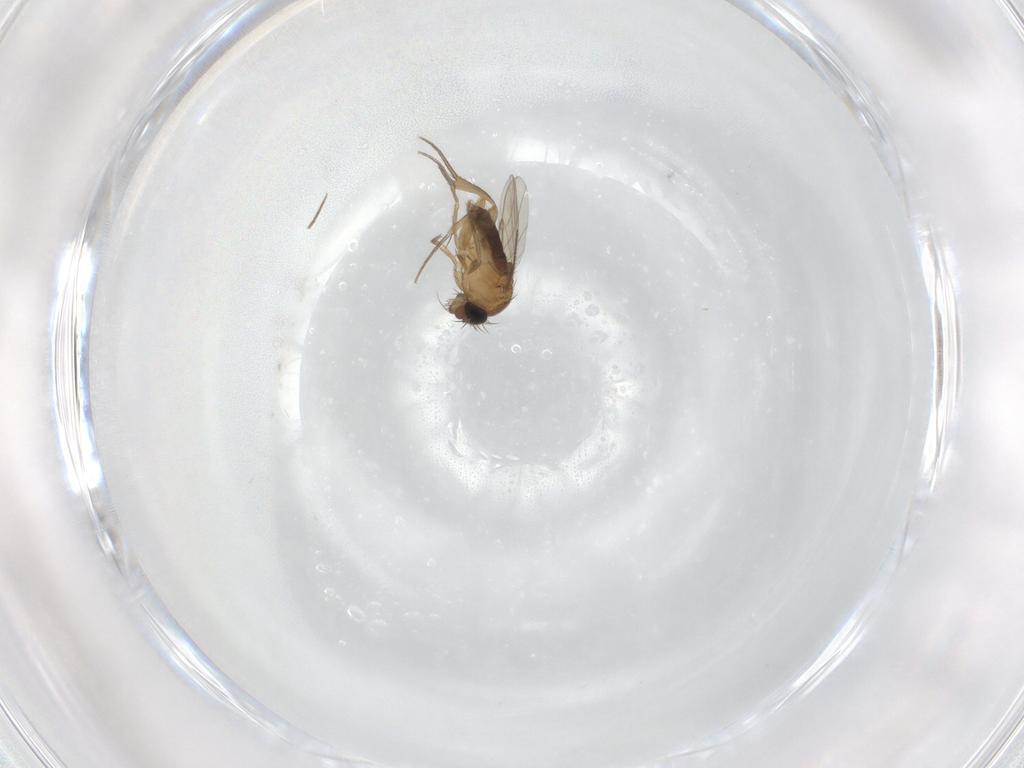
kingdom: Animalia
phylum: Arthropoda
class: Insecta
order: Diptera
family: Phoridae
